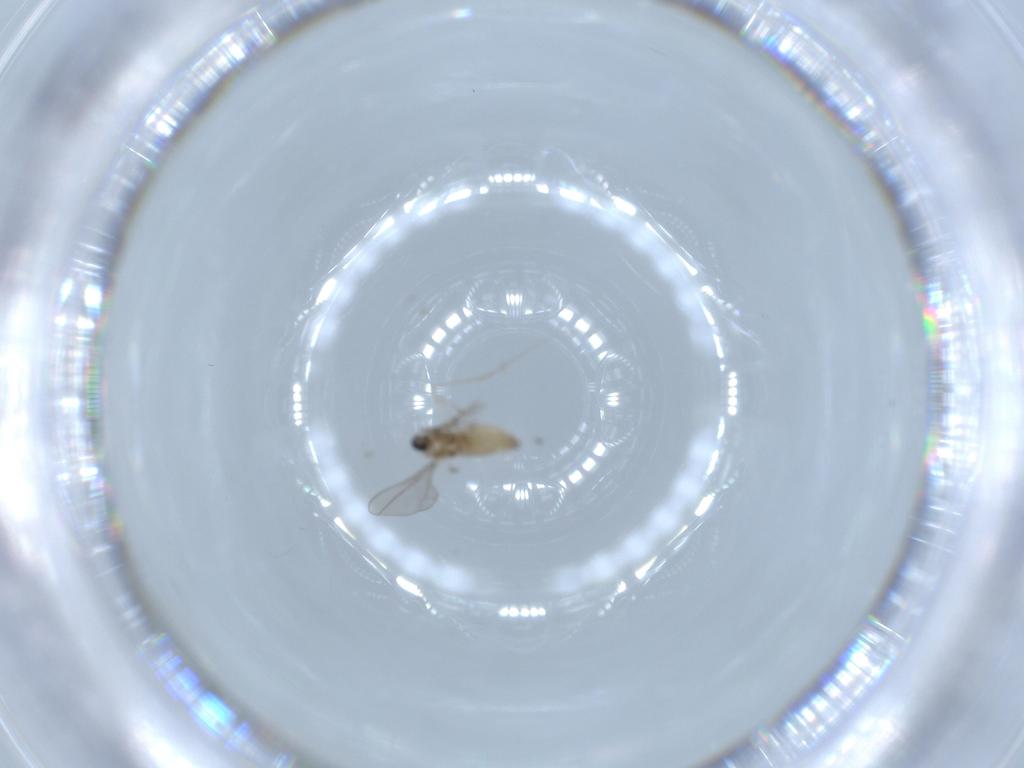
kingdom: Animalia
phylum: Arthropoda
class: Insecta
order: Diptera
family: Cecidomyiidae
